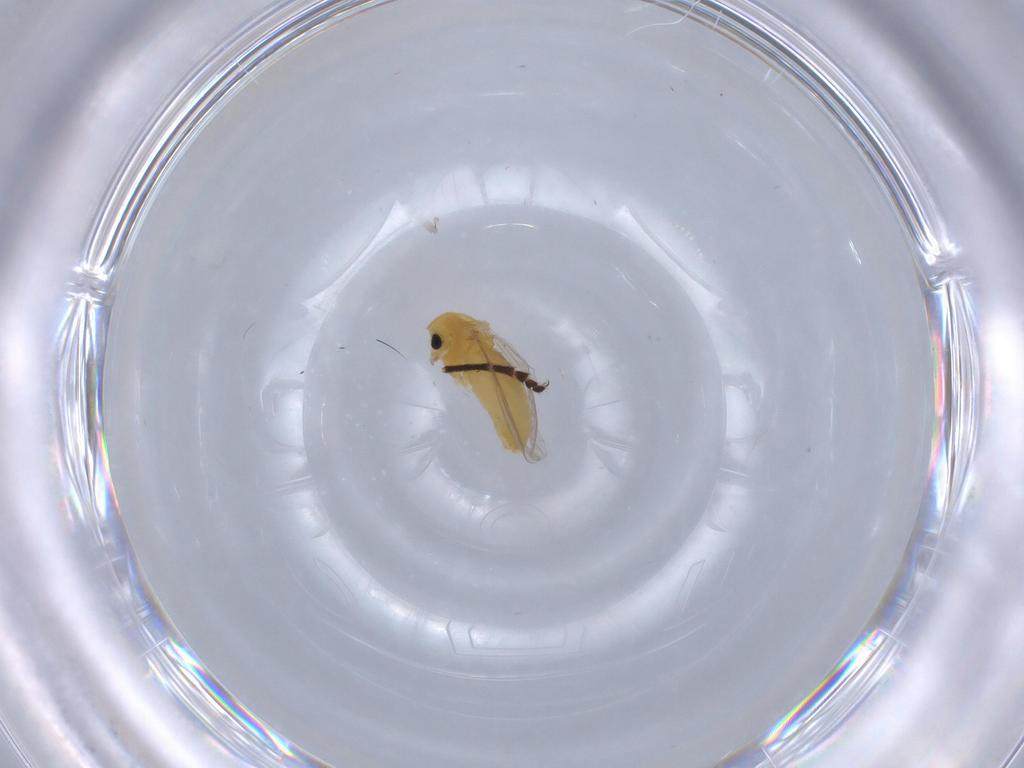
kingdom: Animalia
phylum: Arthropoda
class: Insecta
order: Diptera
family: Chironomidae
